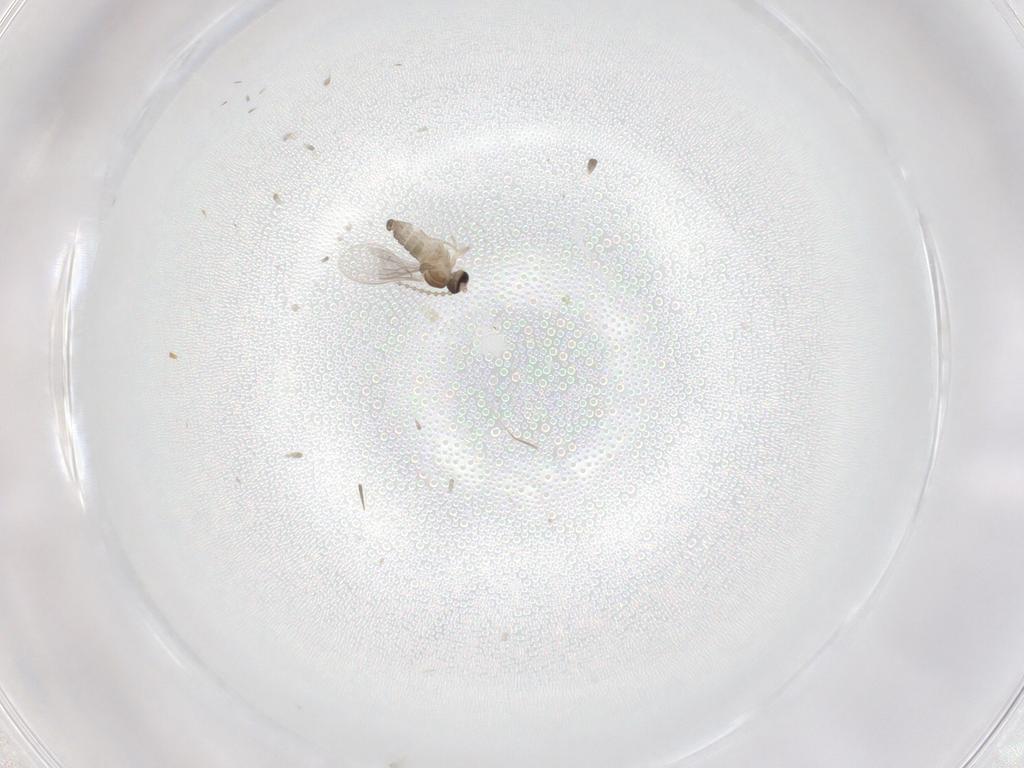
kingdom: Animalia
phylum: Arthropoda
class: Insecta
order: Diptera
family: Cecidomyiidae
